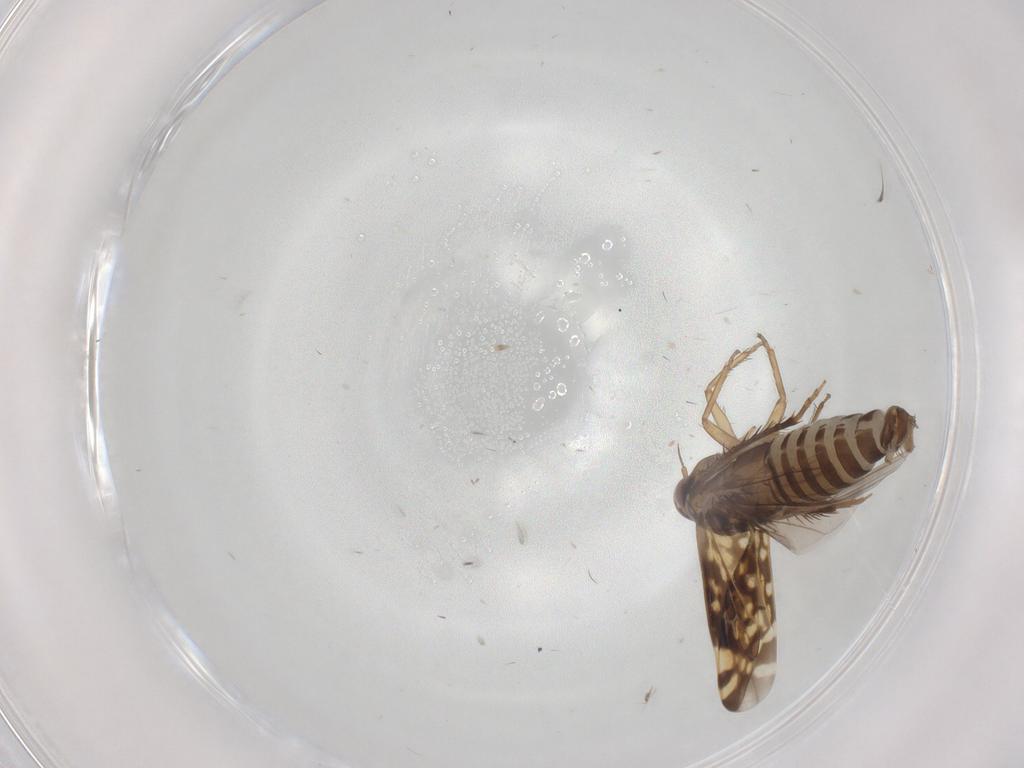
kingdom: Animalia
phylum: Arthropoda
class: Insecta
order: Hemiptera
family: Cicadellidae
